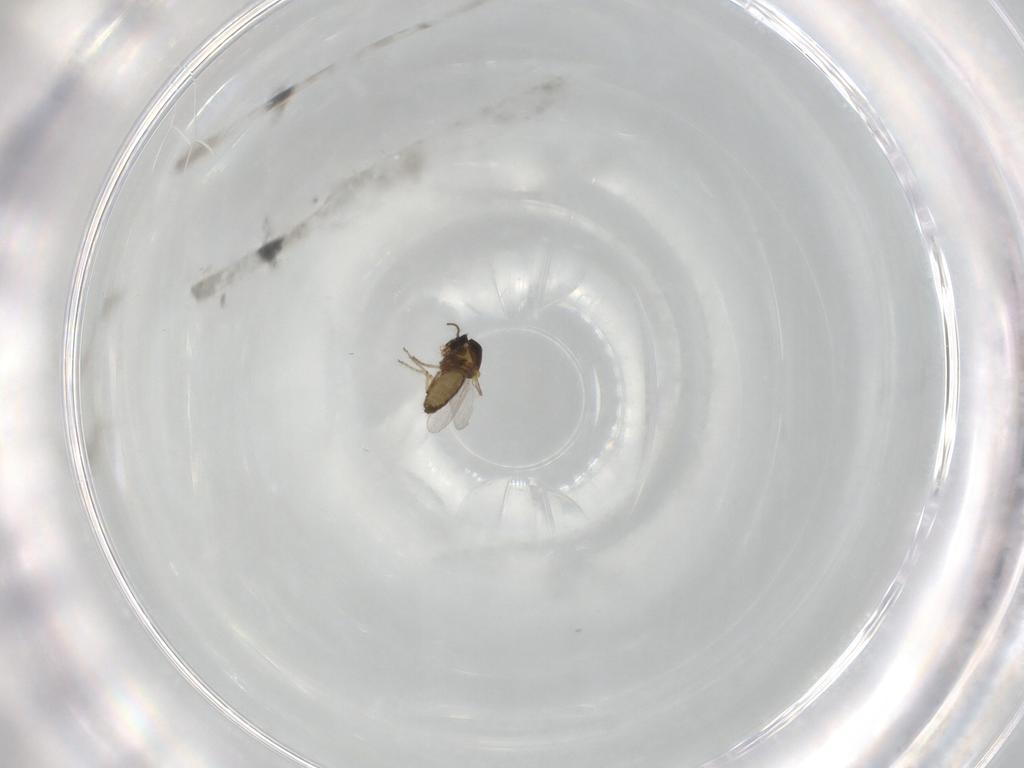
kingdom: Animalia
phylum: Arthropoda
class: Insecta
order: Diptera
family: Ceratopogonidae
